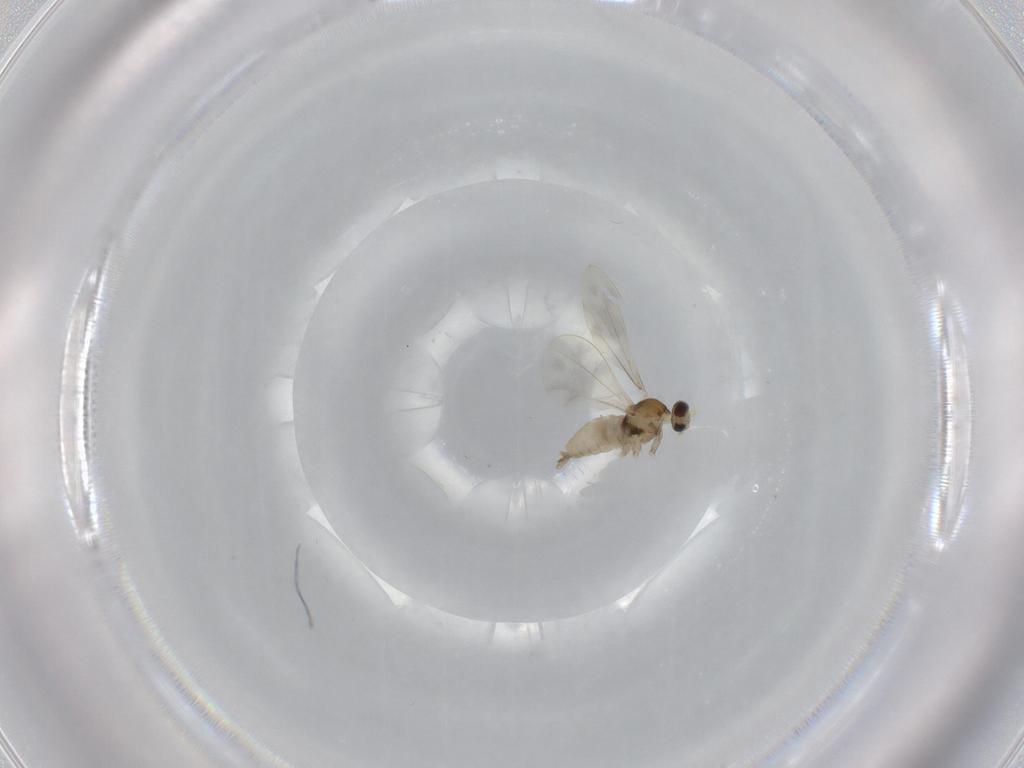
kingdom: Animalia
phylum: Arthropoda
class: Insecta
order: Diptera
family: Cecidomyiidae
